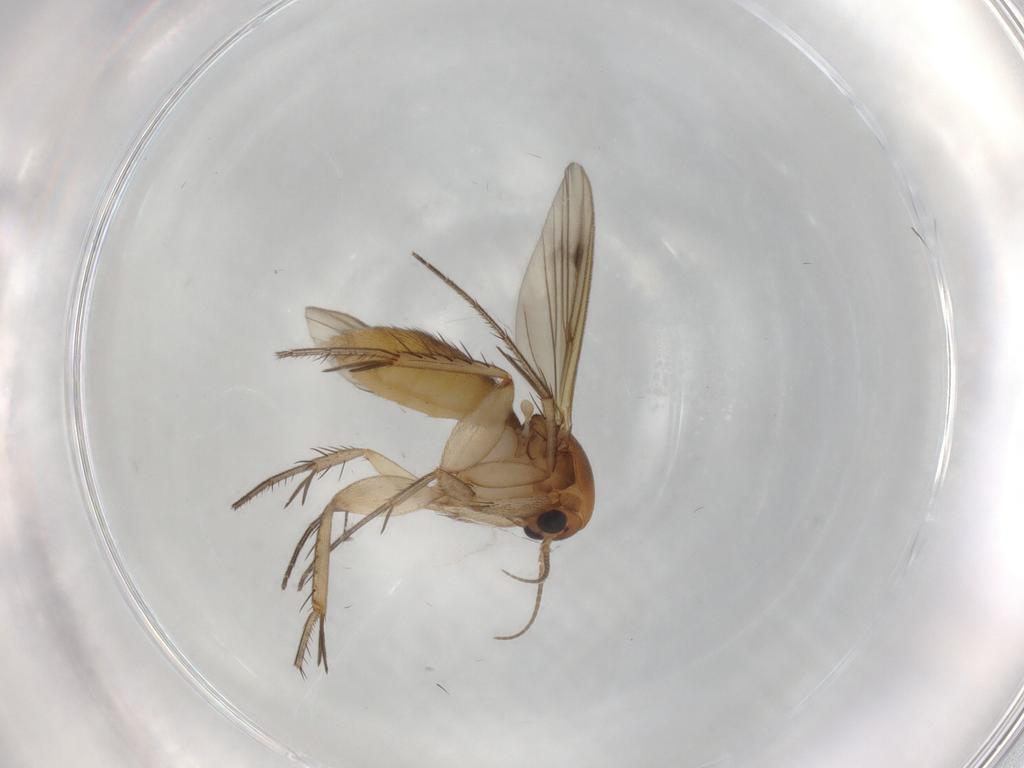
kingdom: Animalia
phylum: Arthropoda
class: Insecta
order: Diptera
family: Mycetophilidae
